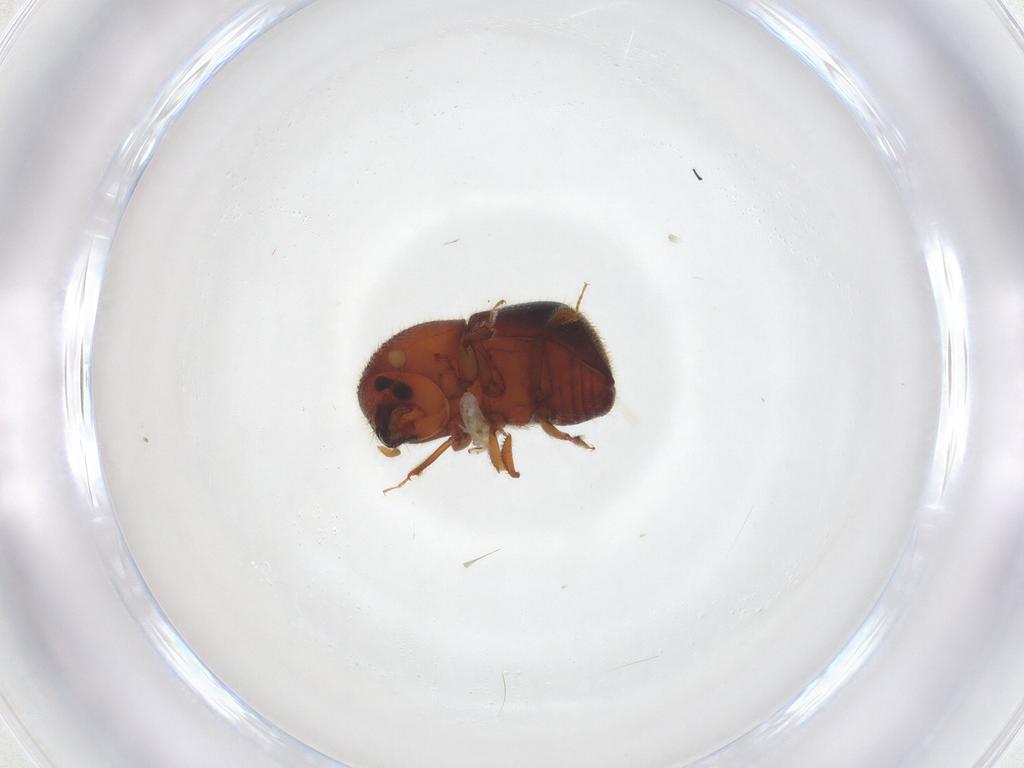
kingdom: Animalia
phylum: Arthropoda
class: Insecta
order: Coleoptera
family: Curculionidae
